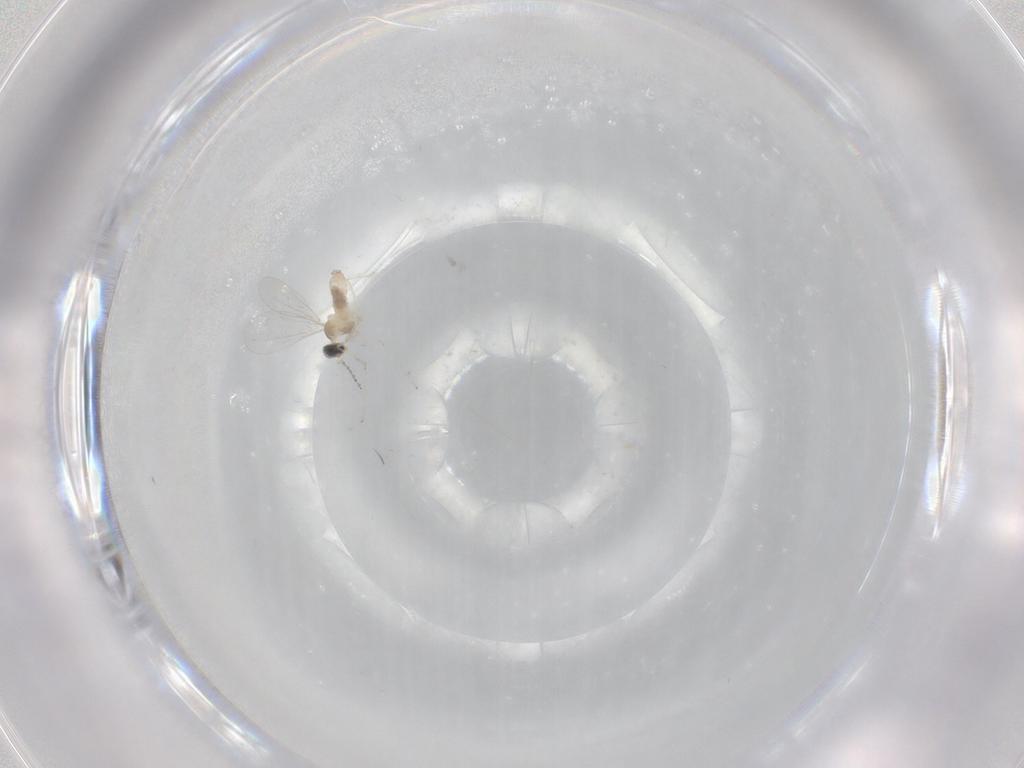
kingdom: Animalia
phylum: Arthropoda
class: Insecta
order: Diptera
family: Cecidomyiidae
